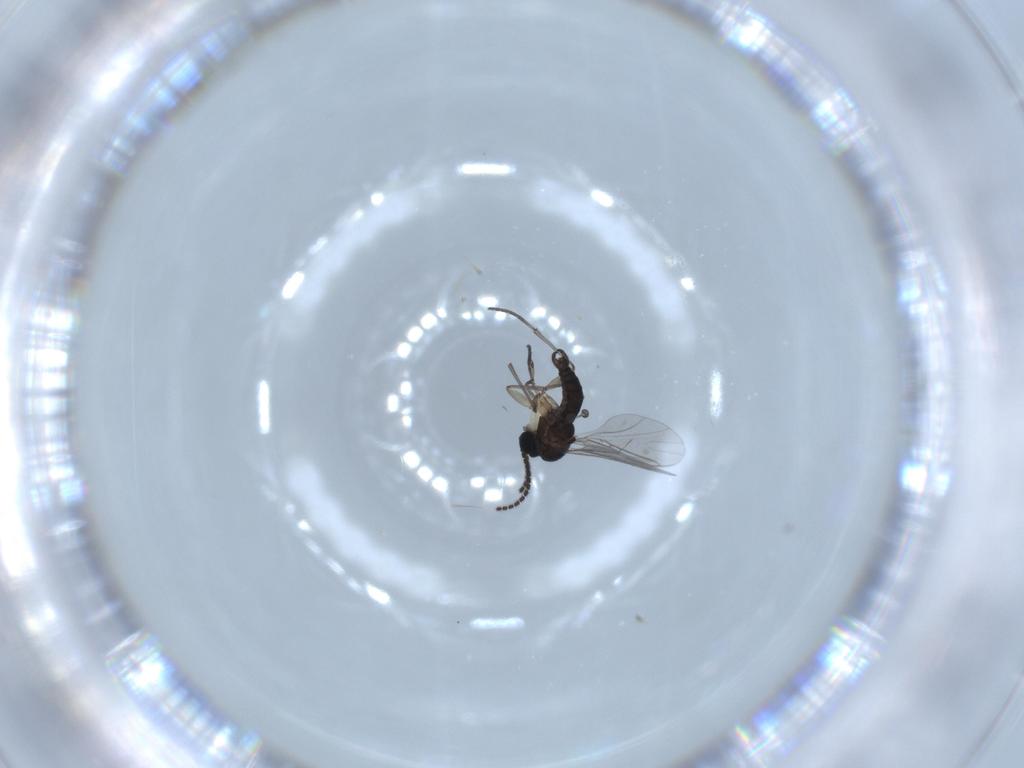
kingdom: Animalia
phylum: Arthropoda
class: Insecta
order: Diptera
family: Sciaridae
